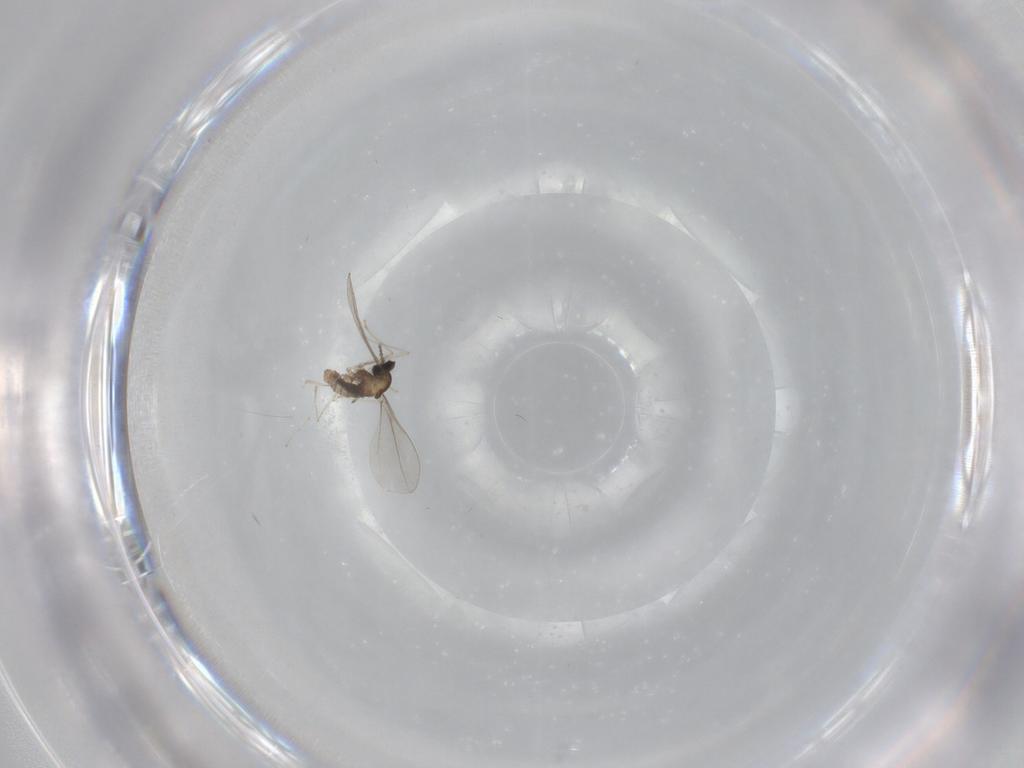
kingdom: Animalia
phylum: Arthropoda
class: Insecta
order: Diptera
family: Cecidomyiidae
